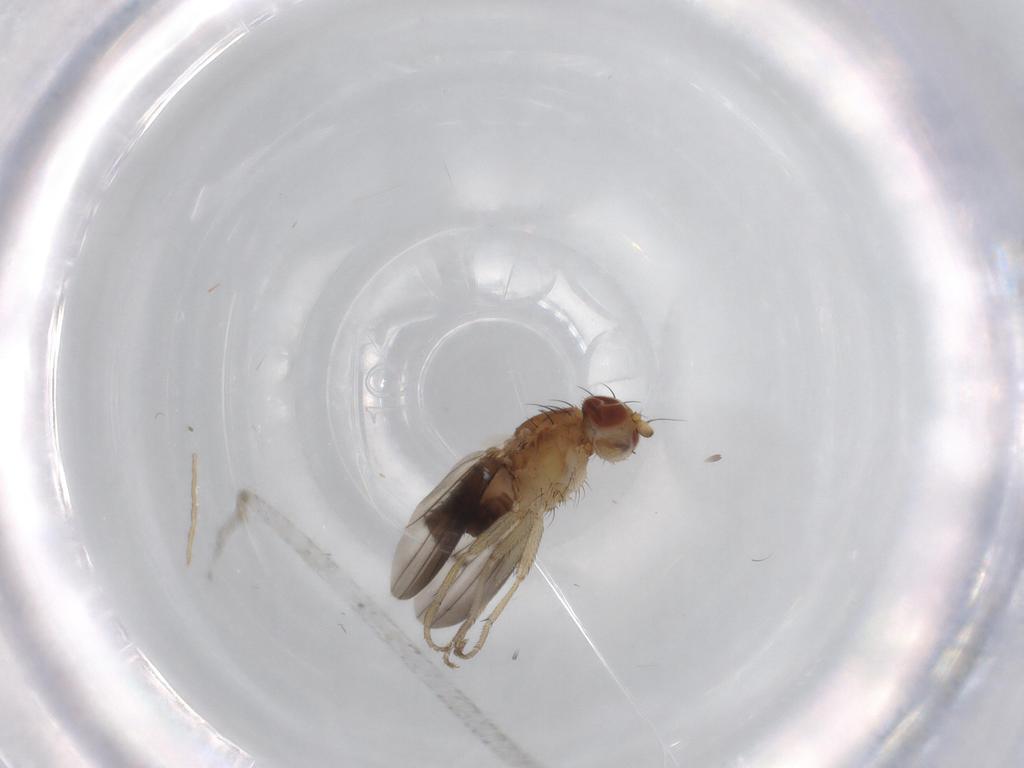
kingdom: Animalia
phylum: Arthropoda
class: Insecta
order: Diptera
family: Heleomyzidae
